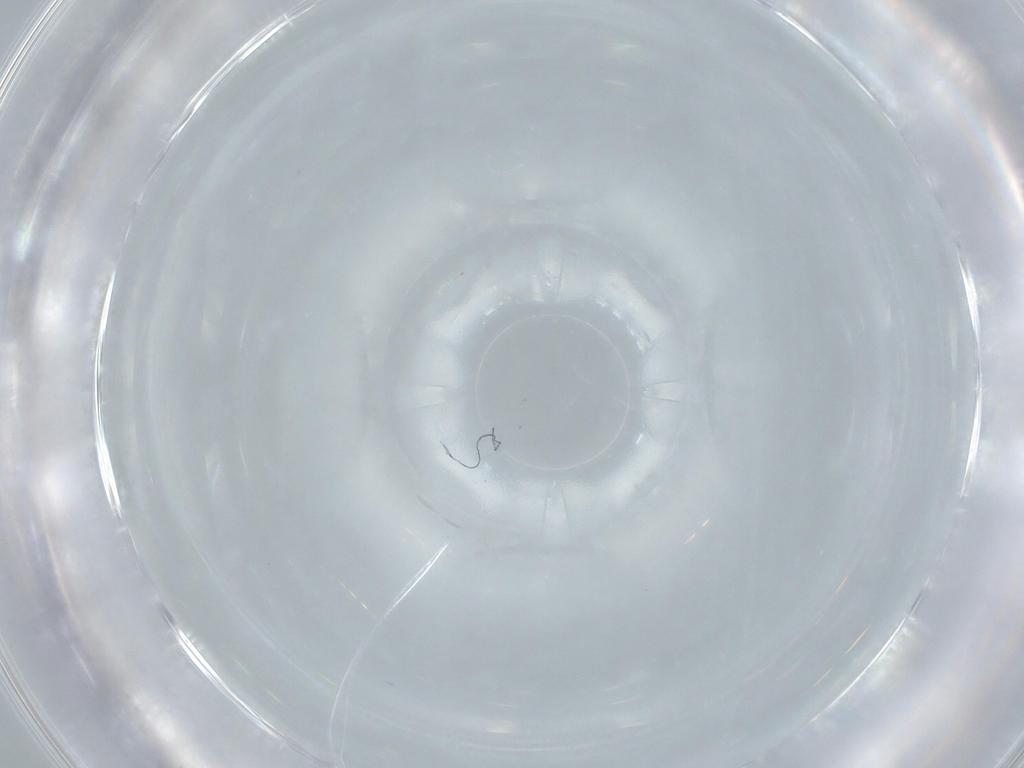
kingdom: Animalia
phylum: Arthropoda
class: Insecta
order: Diptera
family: Psychodidae
